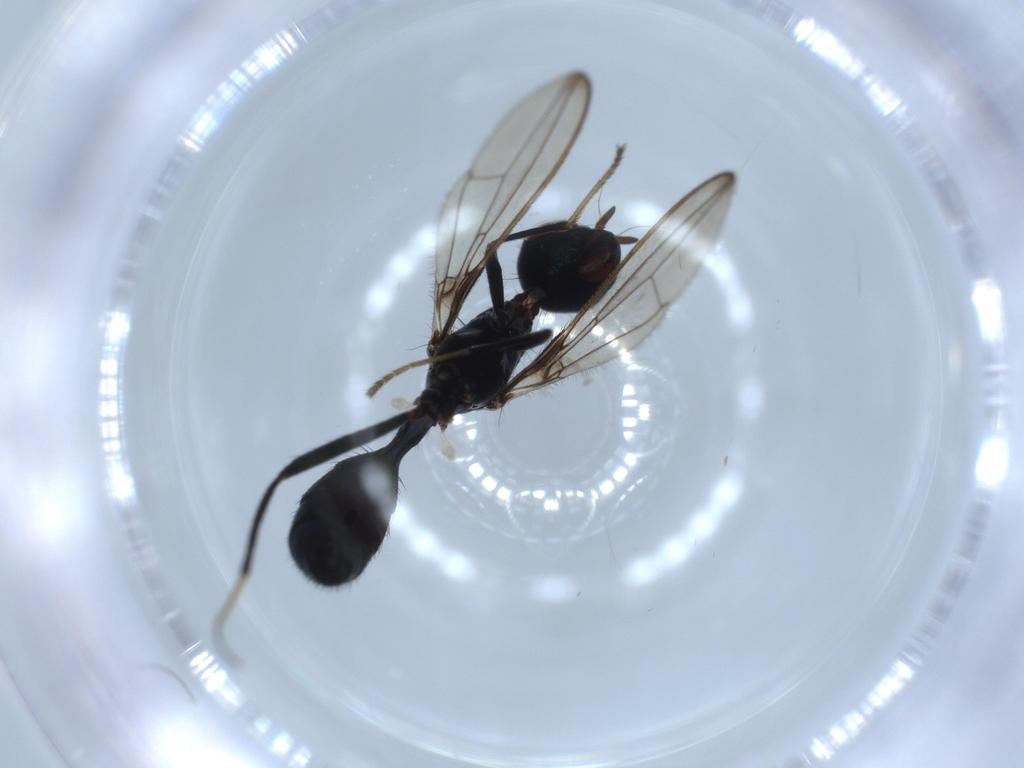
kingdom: Animalia
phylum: Arthropoda
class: Insecta
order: Diptera
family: Richardiidae
